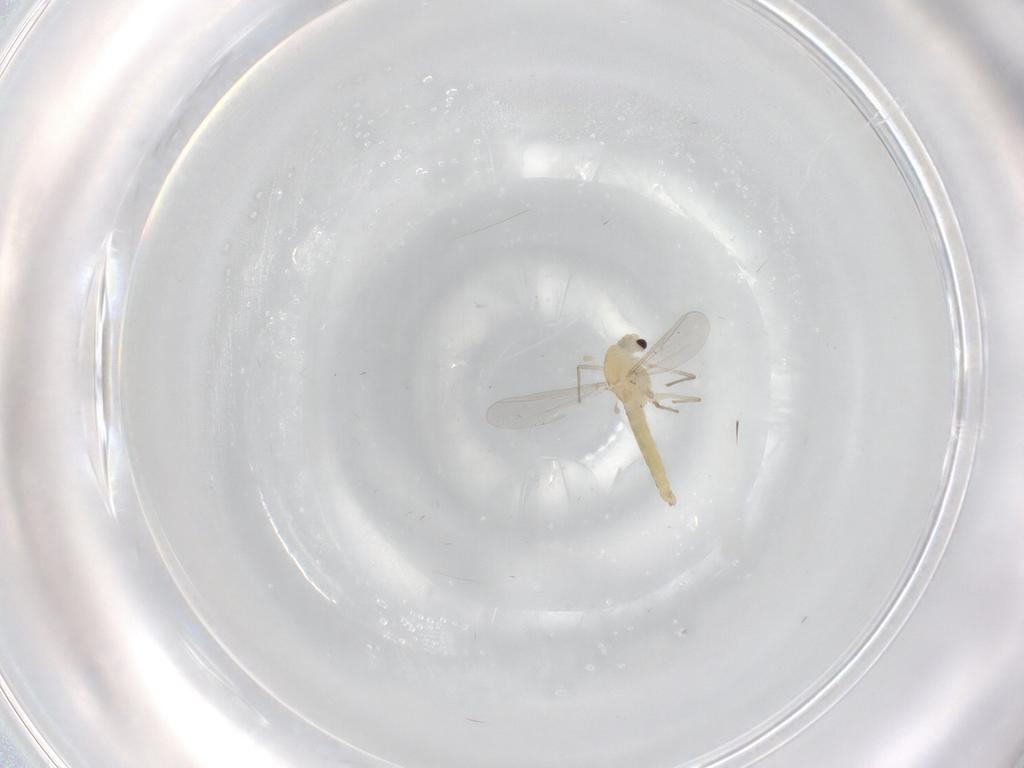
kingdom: Animalia
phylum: Arthropoda
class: Insecta
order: Diptera
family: Chironomidae
